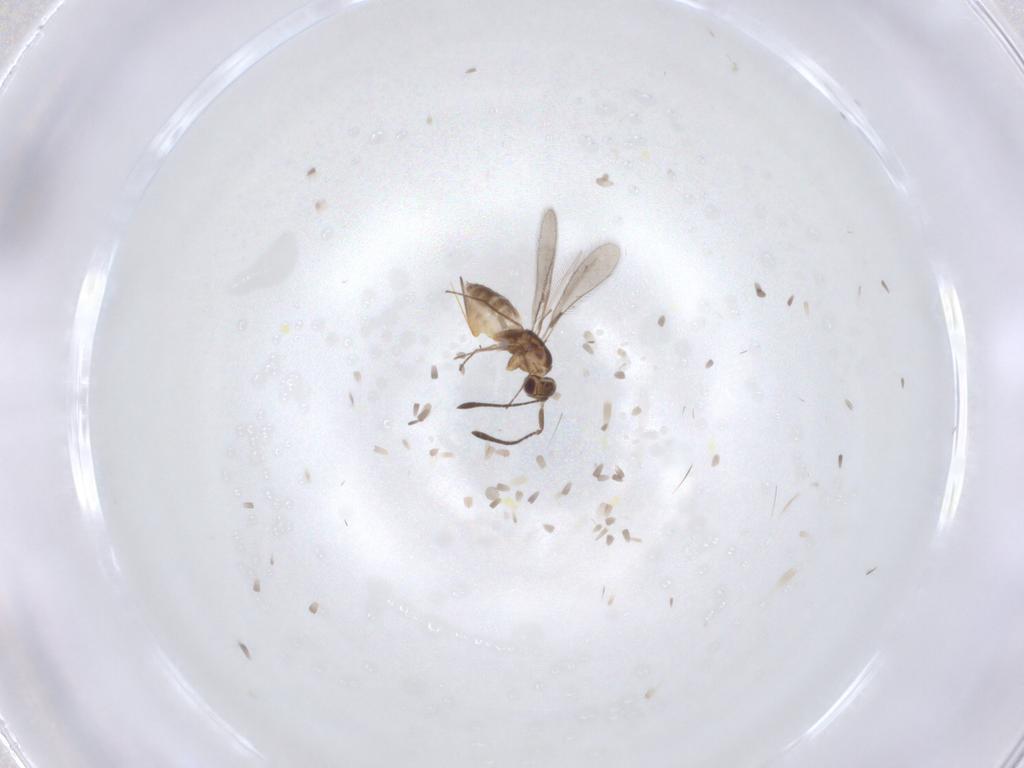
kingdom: Animalia
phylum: Arthropoda
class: Insecta
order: Hymenoptera
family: Mymaridae
